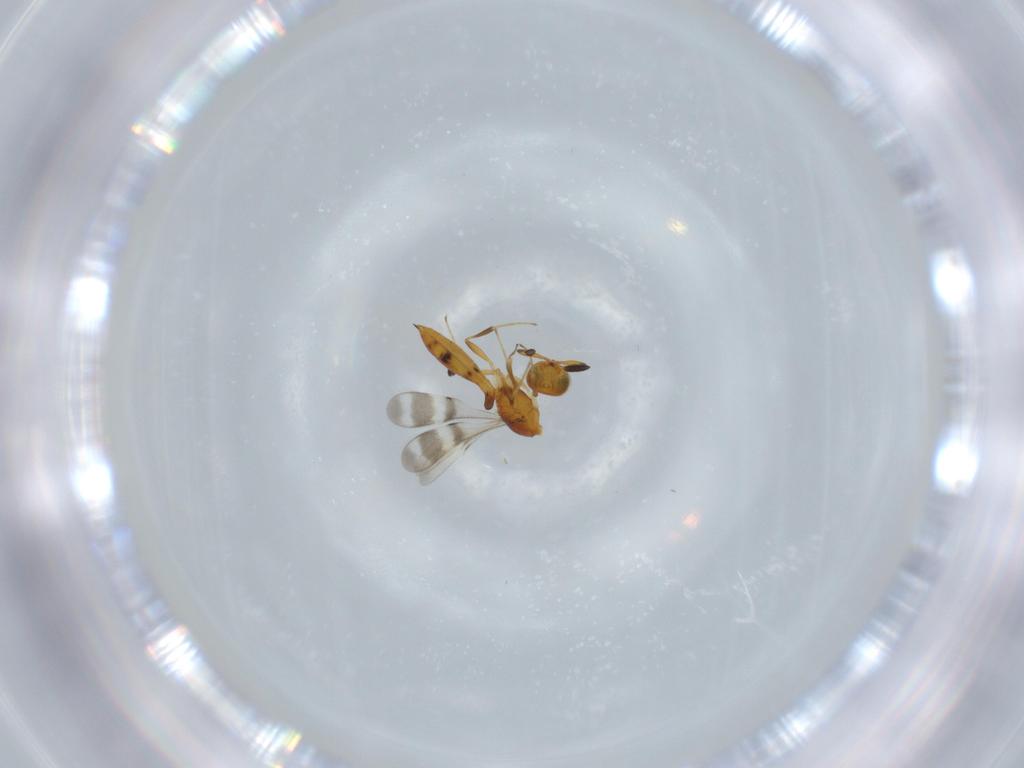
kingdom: Animalia
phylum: Arthropoda
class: Insecta
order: Hymenoptera
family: Scelionidae
